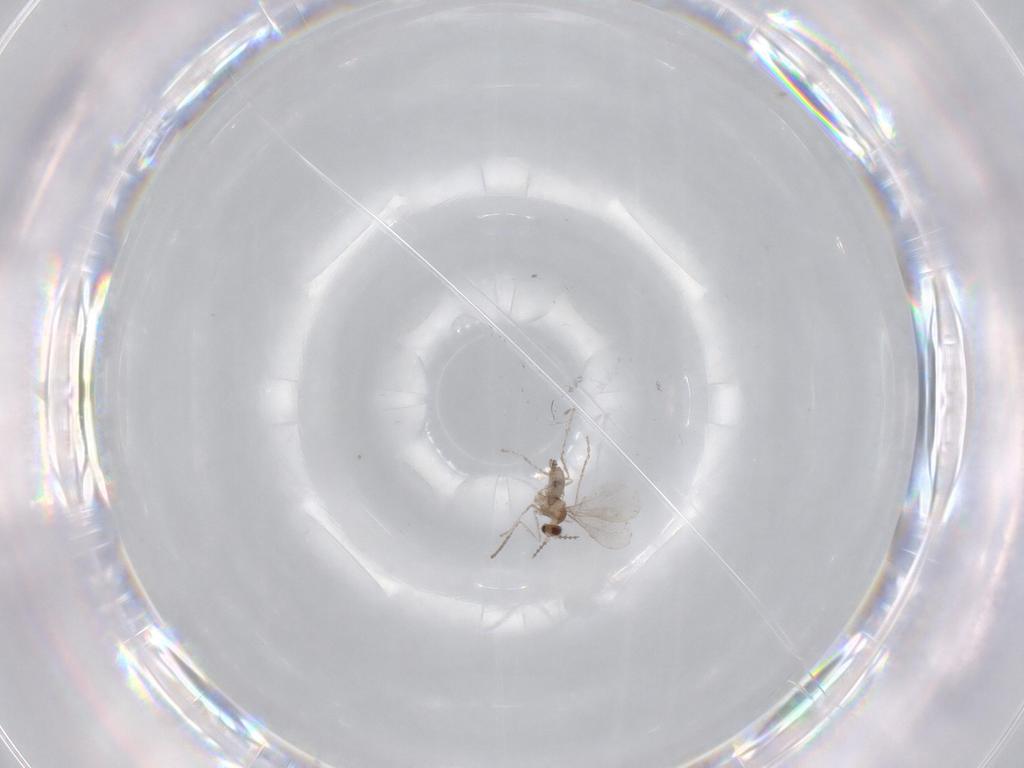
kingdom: Animalia
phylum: Arthropoda
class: Insecta
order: Diptera
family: Cecidomyiidae
